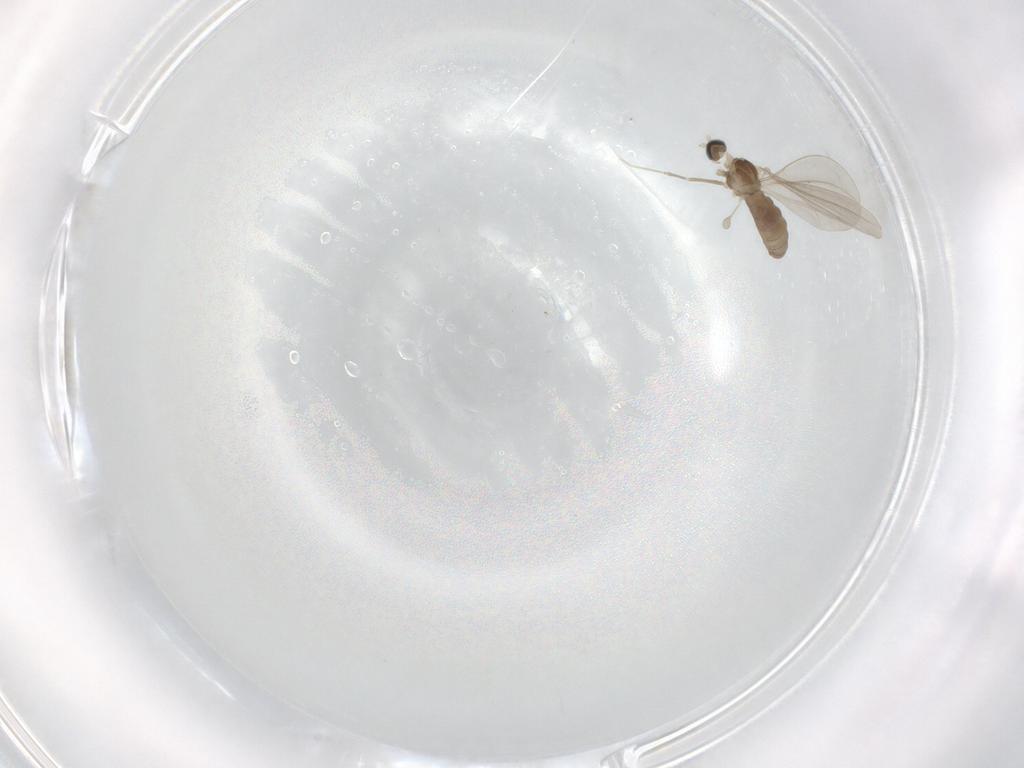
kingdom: Animalia
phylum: Arthropoda
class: Insecta
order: Diptera
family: Cecidomyiidae
